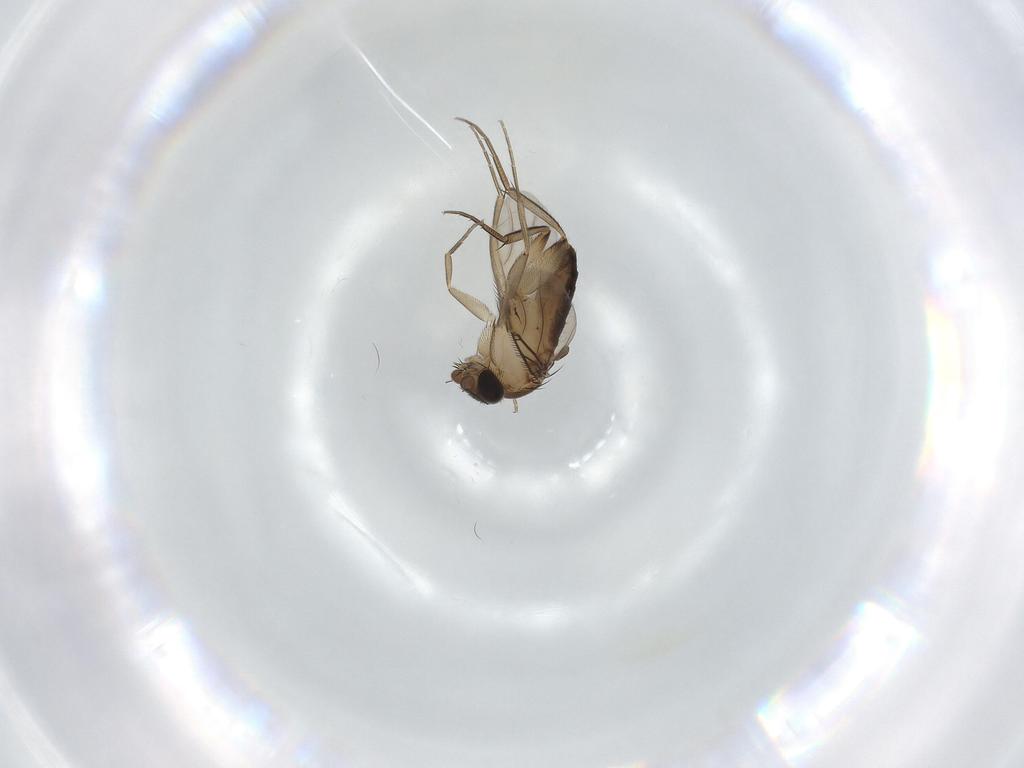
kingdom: Animalia
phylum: Arthropoda
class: Insecta
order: Diptera
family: Phoridae
